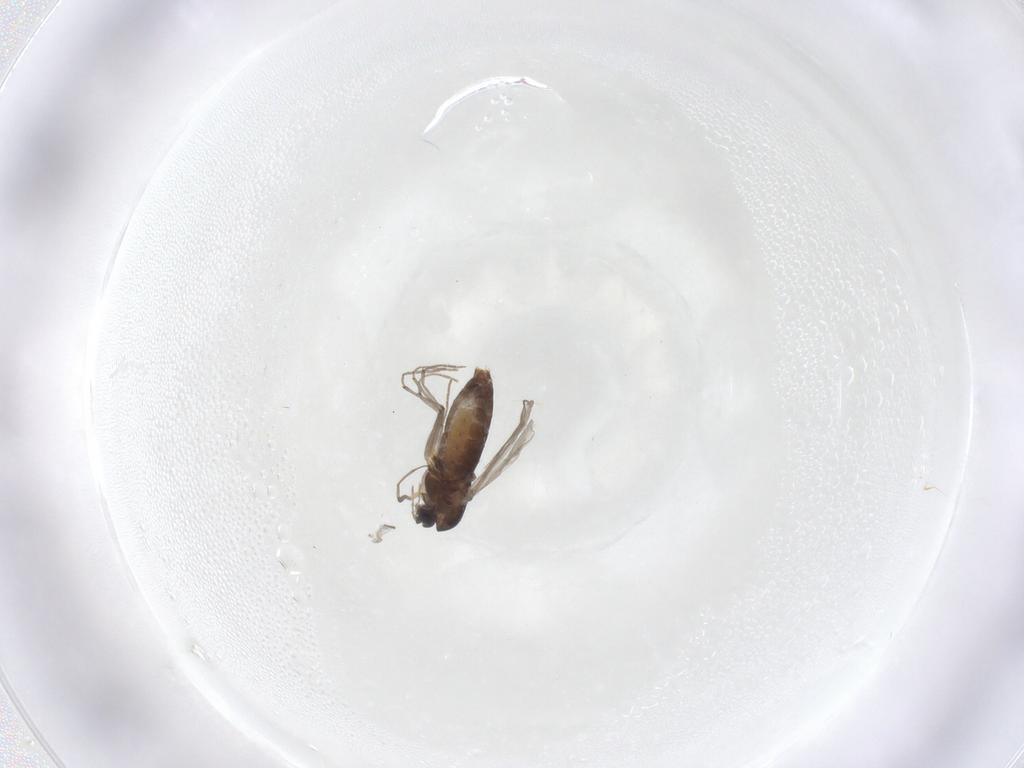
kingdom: Animalia
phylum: Arthropoda
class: Insecta
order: Diptera
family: Chironomidae
